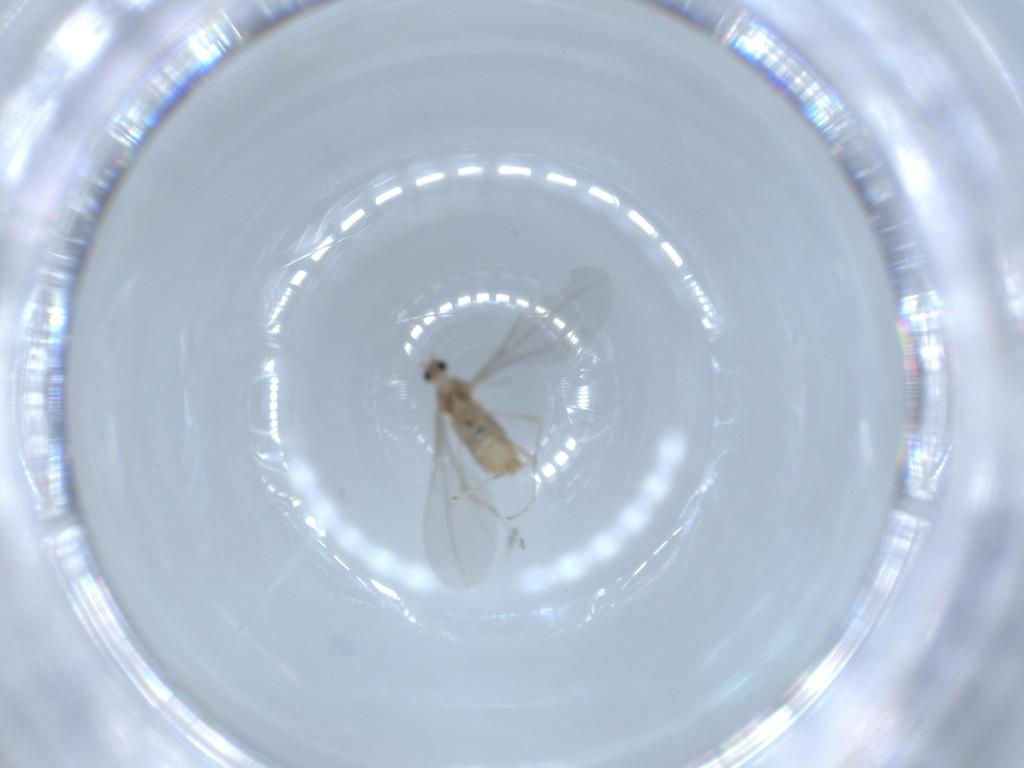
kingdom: Animalia
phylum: Arthropoda
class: Insecta
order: Diptera
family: Cecidomyiidae
